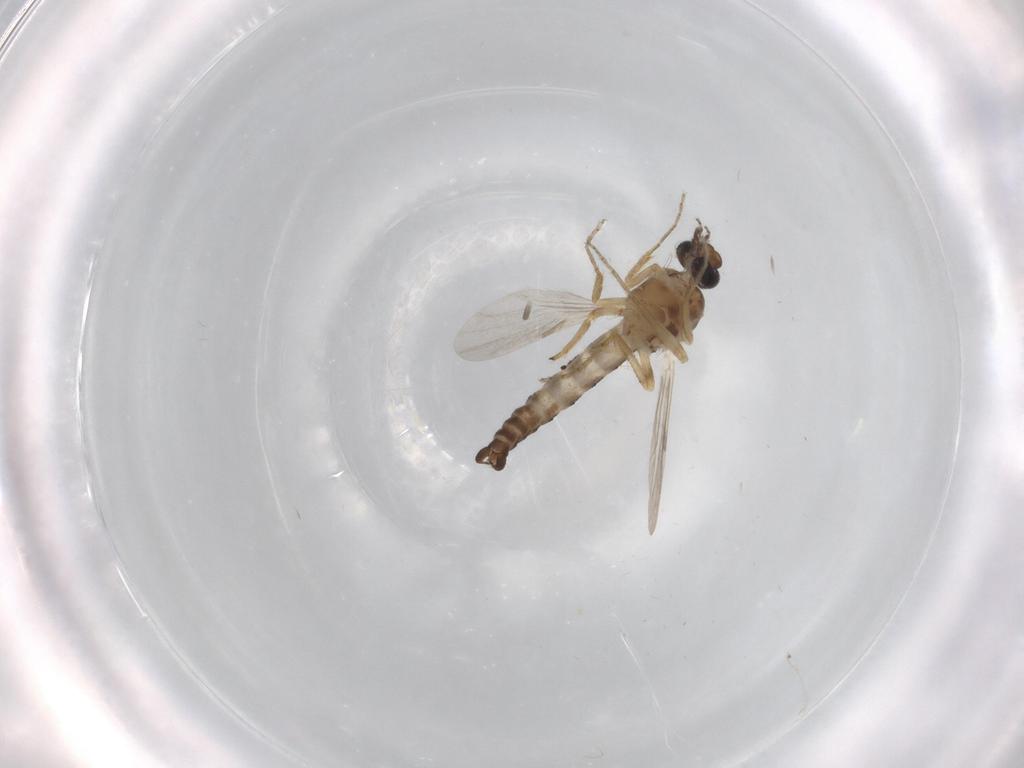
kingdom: Animalia
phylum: Arthropoda
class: Insecta
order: Diptera
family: Ceratopogonidae
